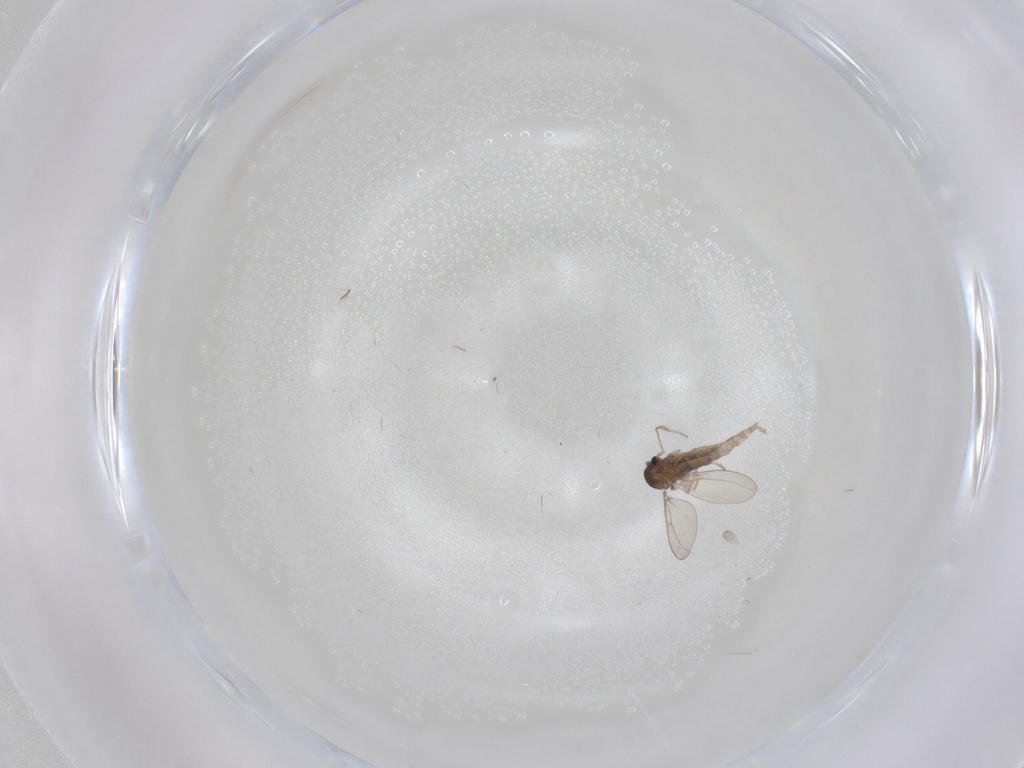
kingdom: Animalia
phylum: Arthropoda
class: Insecta
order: Diptera
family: Cecidomyiidae
